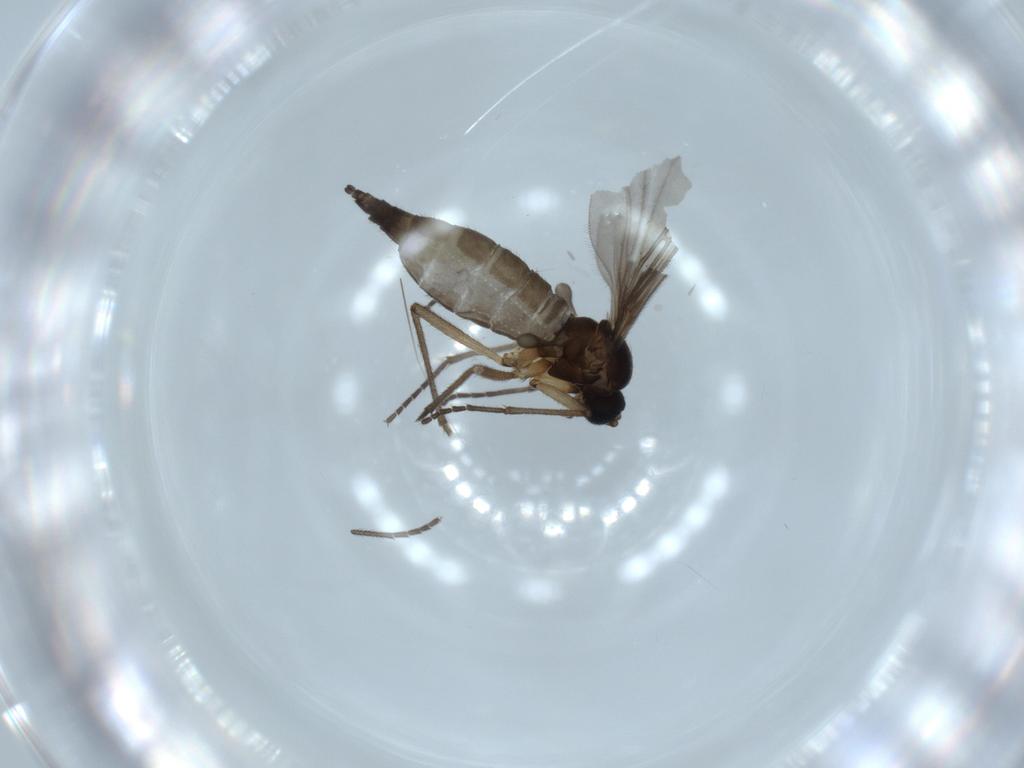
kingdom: Animalia
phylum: Arthropoda
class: Insecta
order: Diptera
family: Sciaridae
